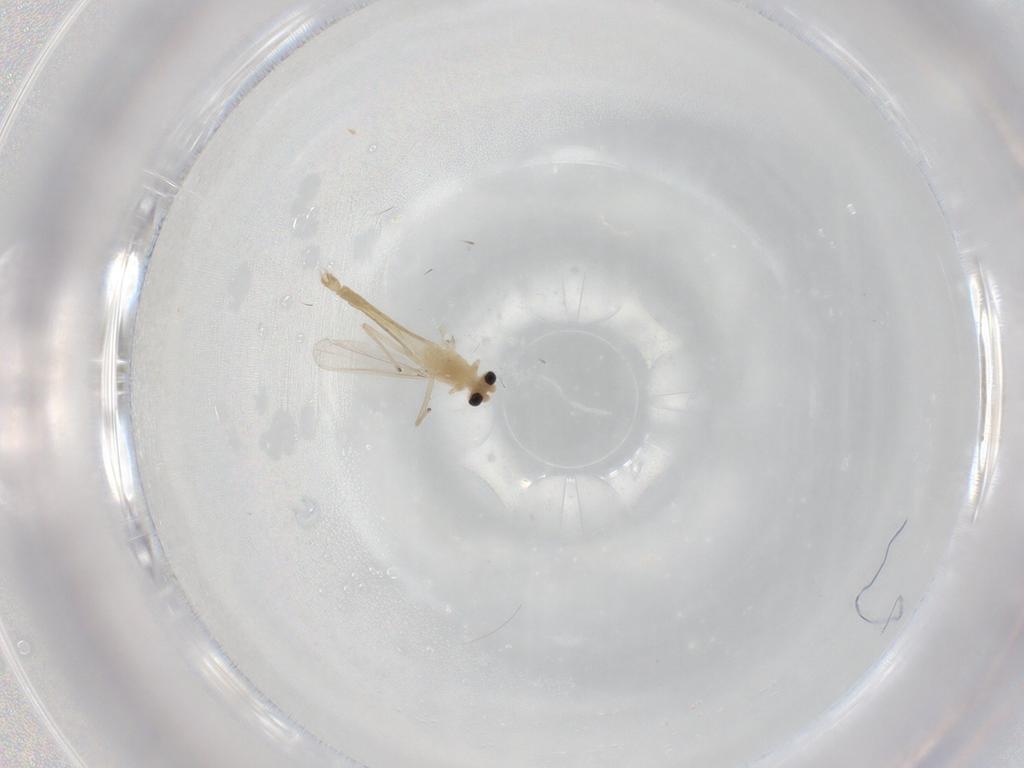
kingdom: Animalia
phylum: Arthropoda
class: Insecta
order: Diptera
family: Chironomidae
